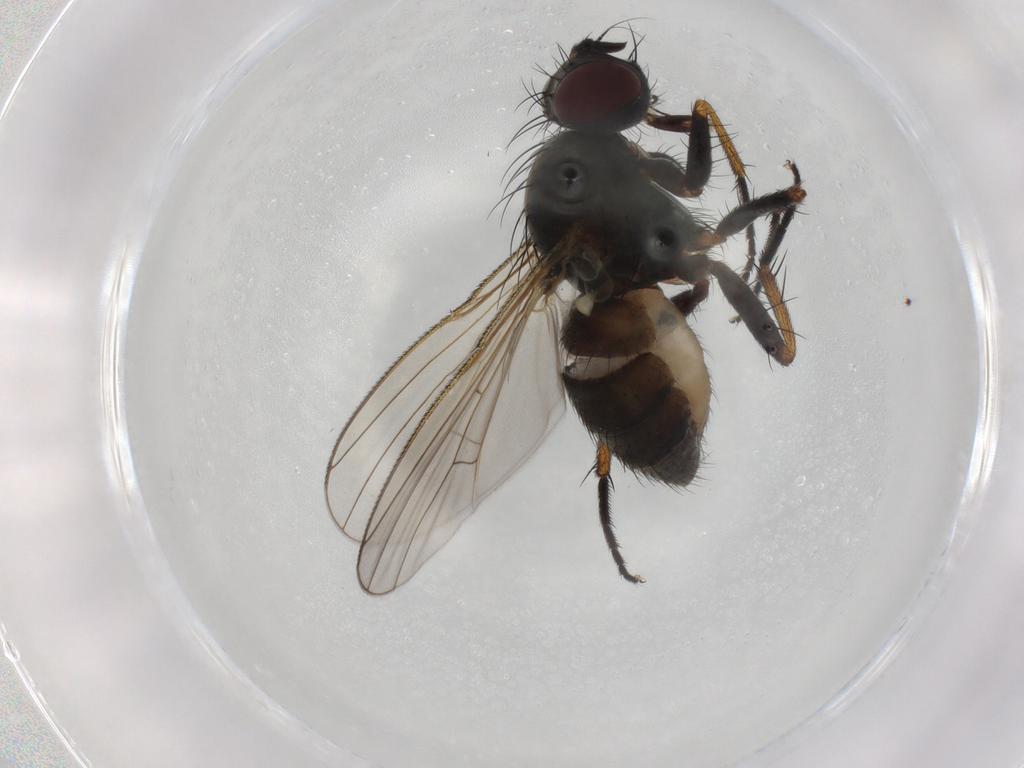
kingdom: Animalia
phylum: Arthropoda
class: Insecta
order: Diptera
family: Muscidae
